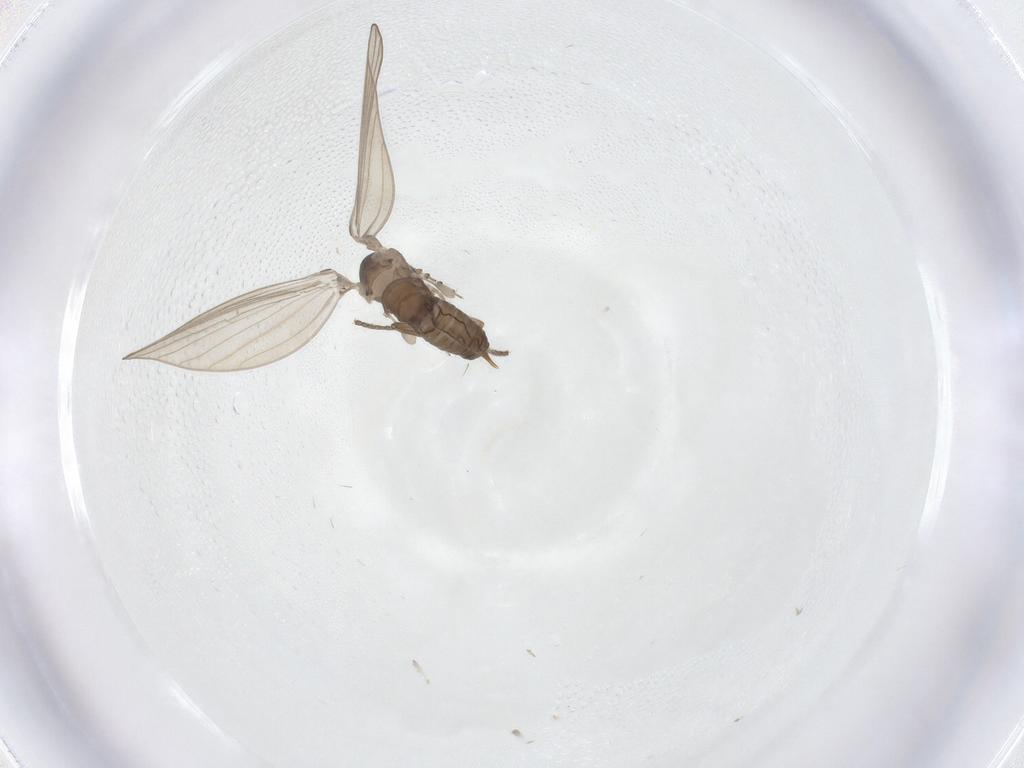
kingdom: Animalia
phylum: Arthropoda
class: Insecta
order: Diptera
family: Psychodidae
